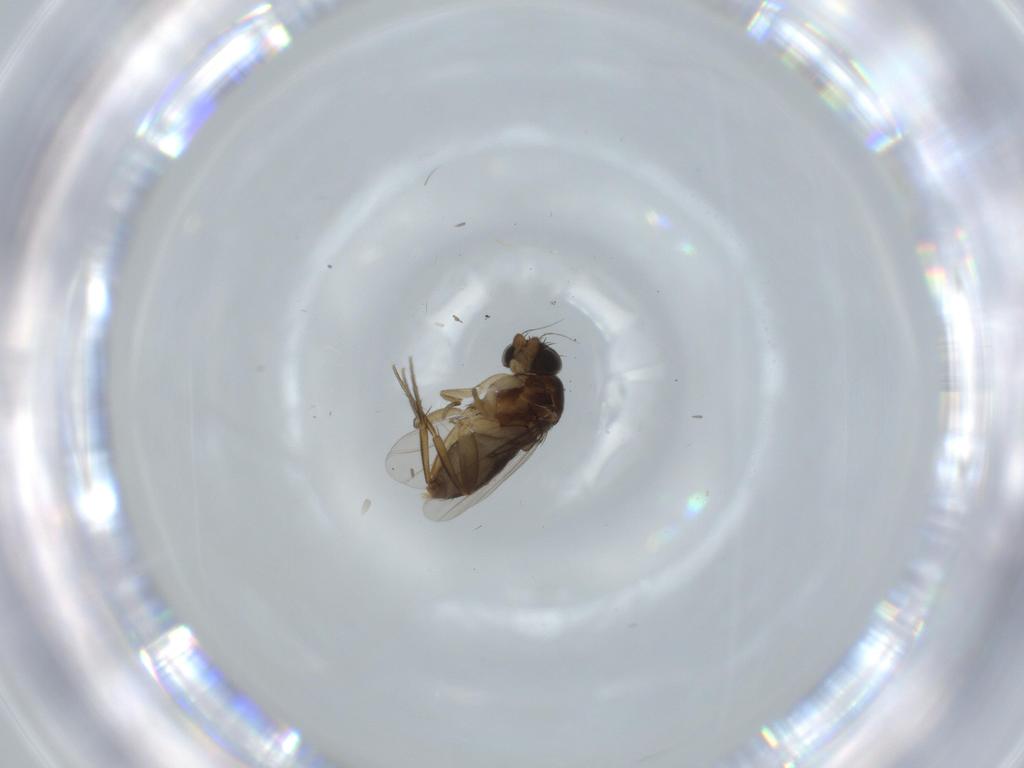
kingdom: Animalia
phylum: Arthropoda
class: Insecta
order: Diptera
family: Phoridae
